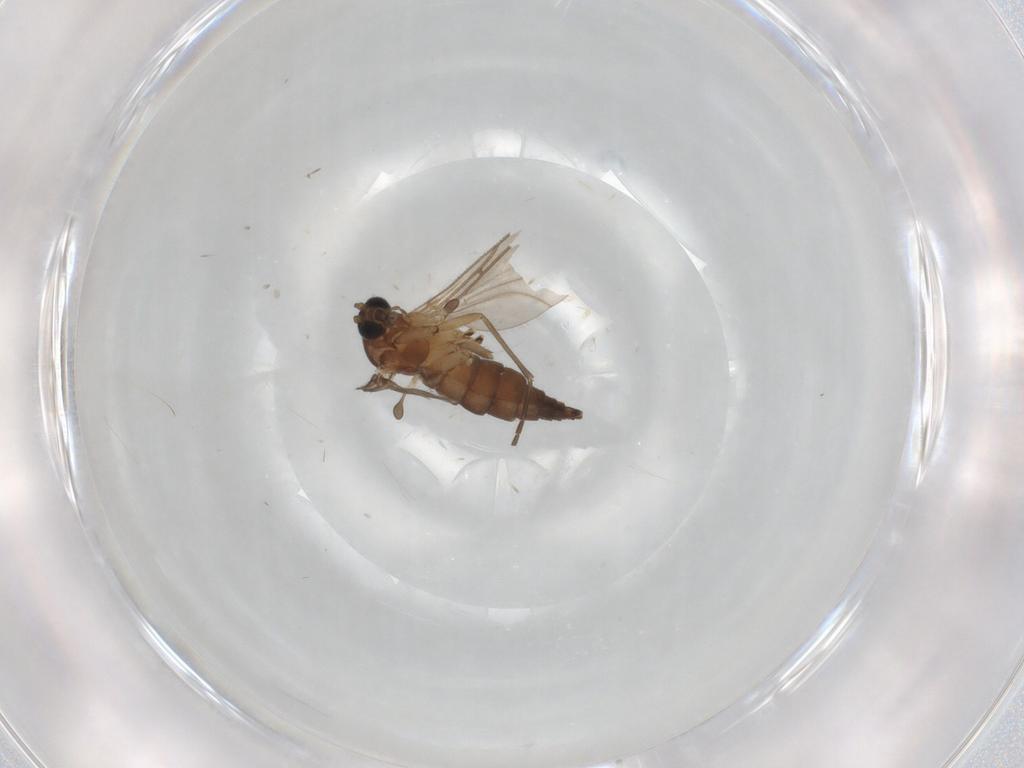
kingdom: Animalia
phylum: Arthropoda
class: Insecta
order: Diptera
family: Sciaridae
